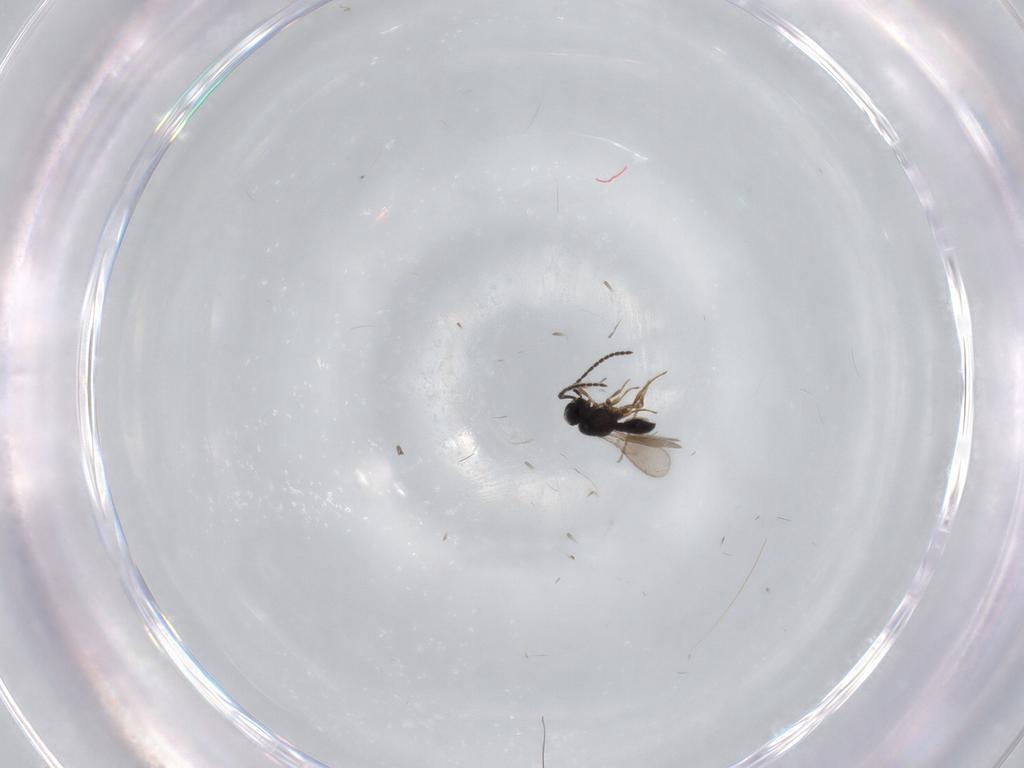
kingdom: Animalia
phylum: Arthropoda
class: Insecta
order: Hymenoptera
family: Scelionidae
